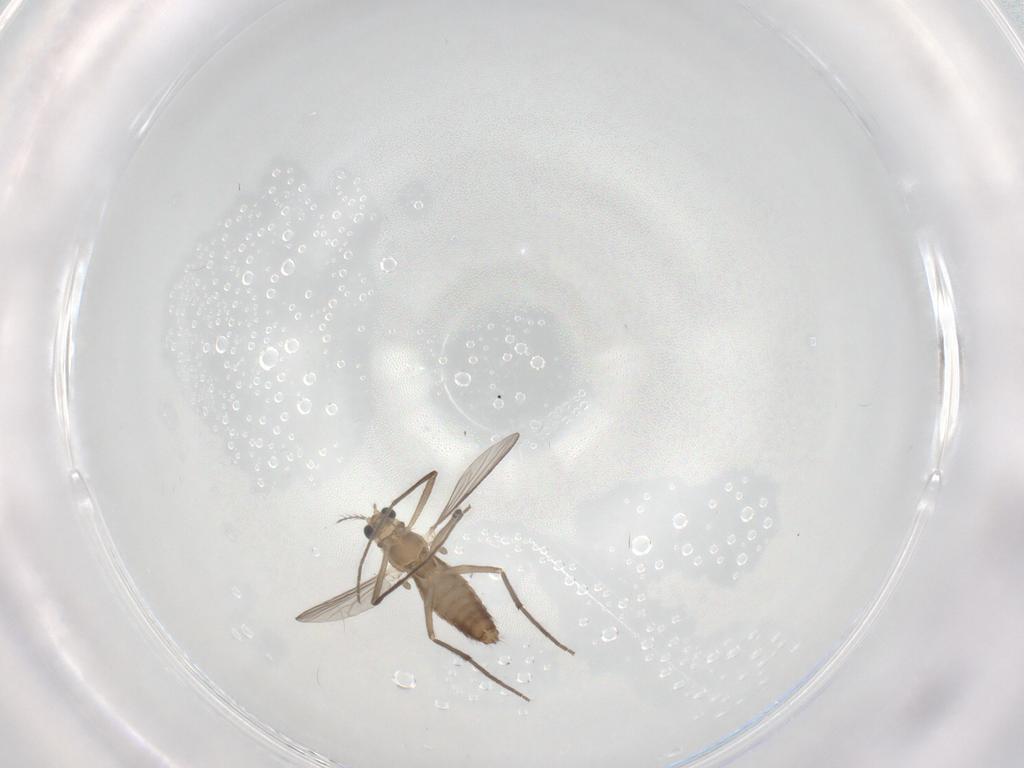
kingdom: Animalia
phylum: Arthropoda
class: Insecta
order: Diptera
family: Chironomidae
